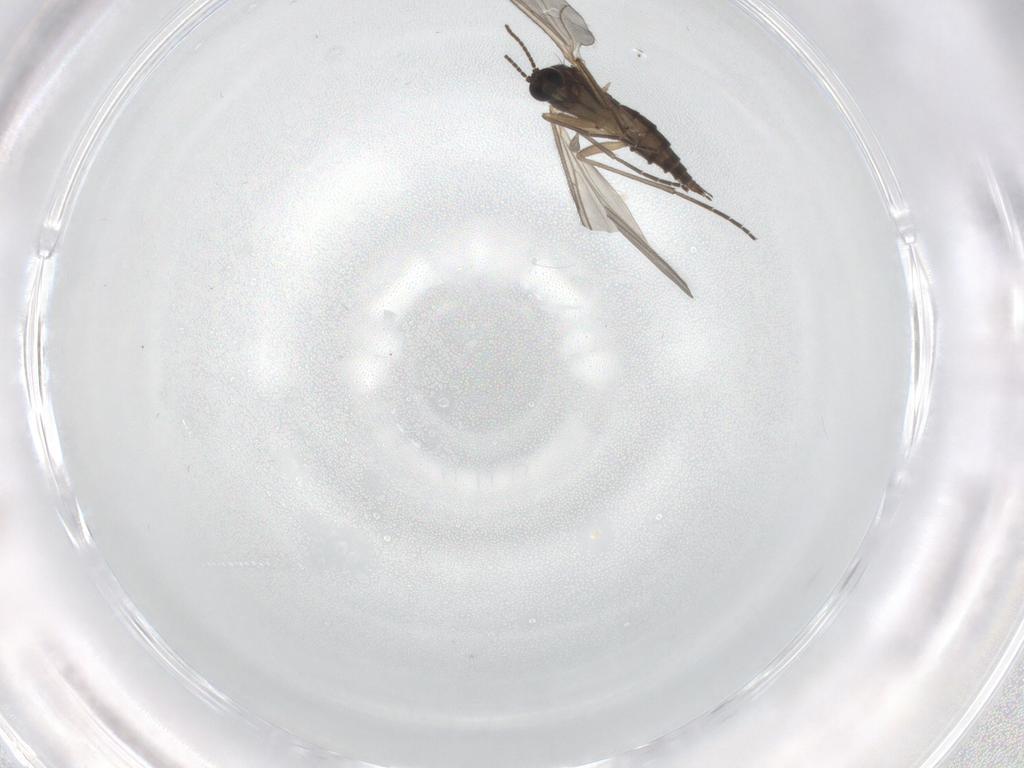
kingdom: Animalia
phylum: Arthropoda
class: Insecta
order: Diptera
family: Sciaridae
